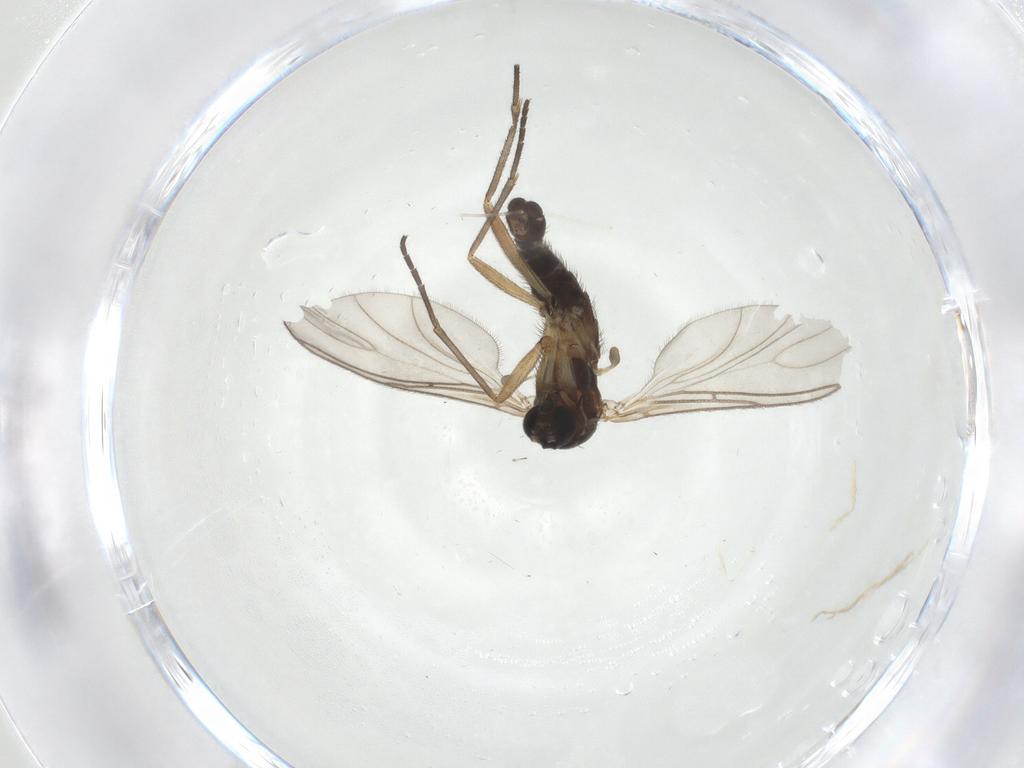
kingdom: Animalia
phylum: Arthropoda
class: Insecta
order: Diptera
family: Sciaridae
